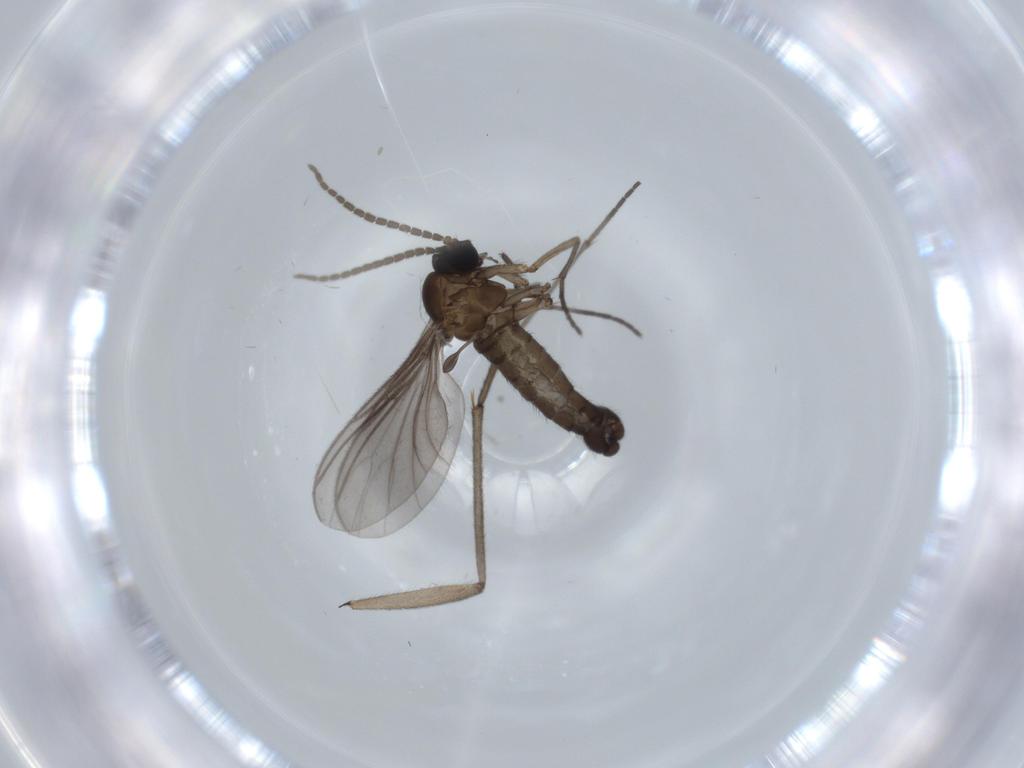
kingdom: Animalia
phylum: Arthropoda
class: Insecta
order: Diptera
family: Sciaridae
